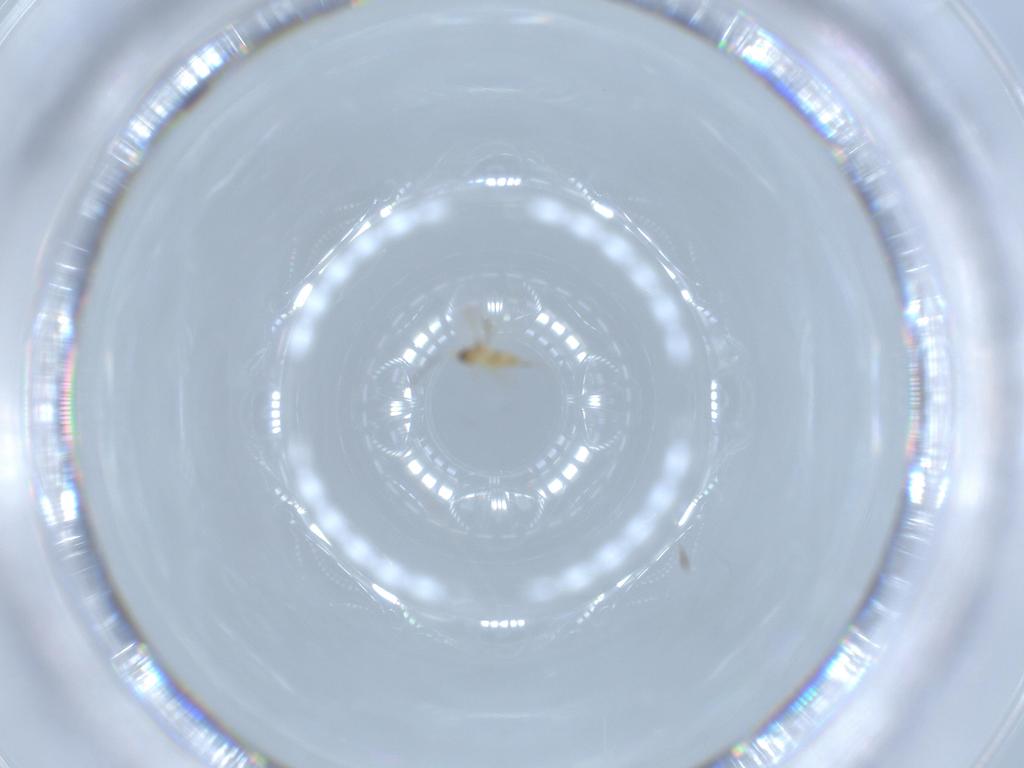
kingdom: Animalia
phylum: Arthropoda
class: Insecta
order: Hymenoptera
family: Mymaridae
